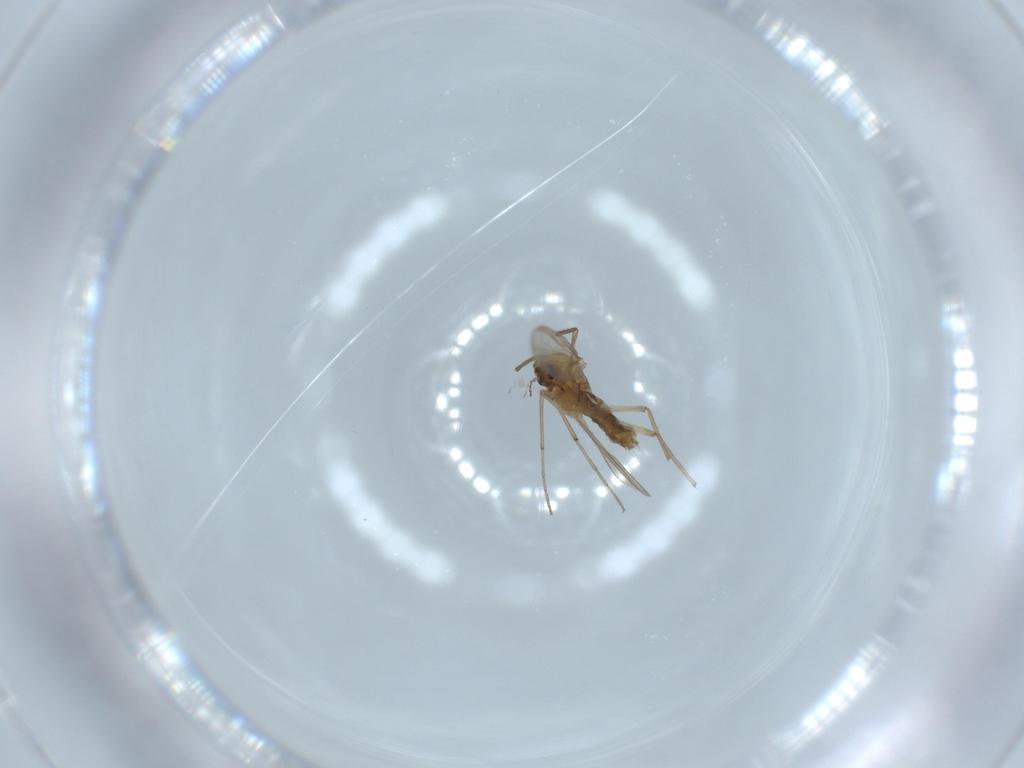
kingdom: Animalia
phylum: Arthropoda
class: Insecta
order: Diptera
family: Chironomidae
